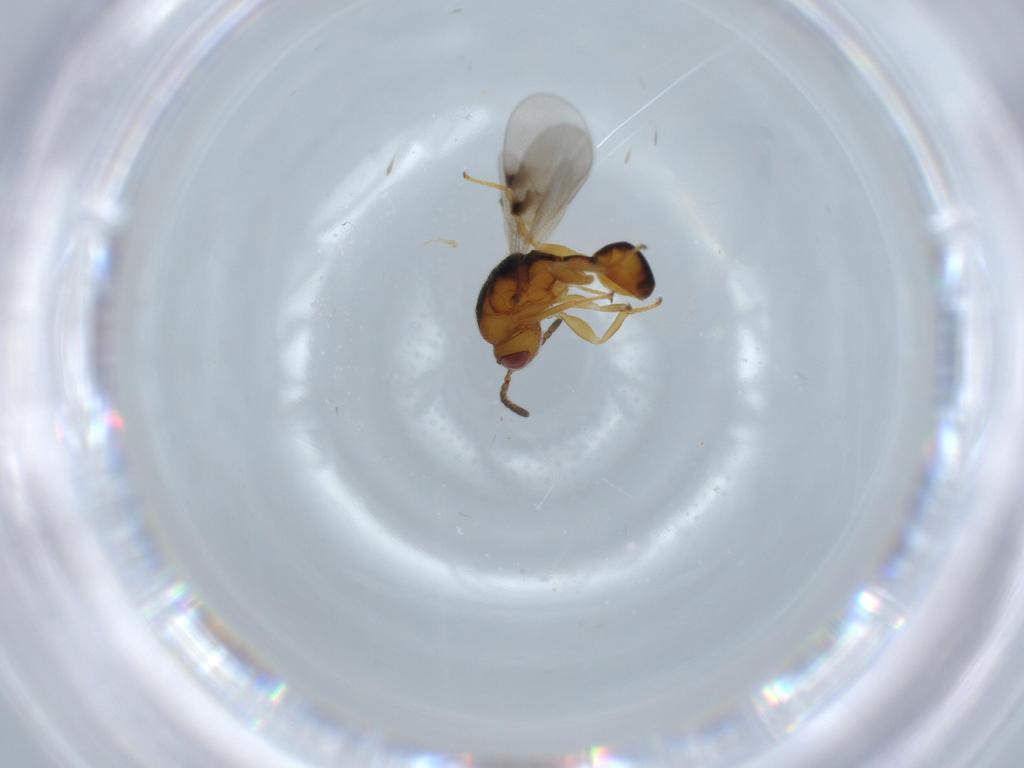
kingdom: Animalia
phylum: Arthropoda
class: Insecta
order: Hymenoptera
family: Formicidae
